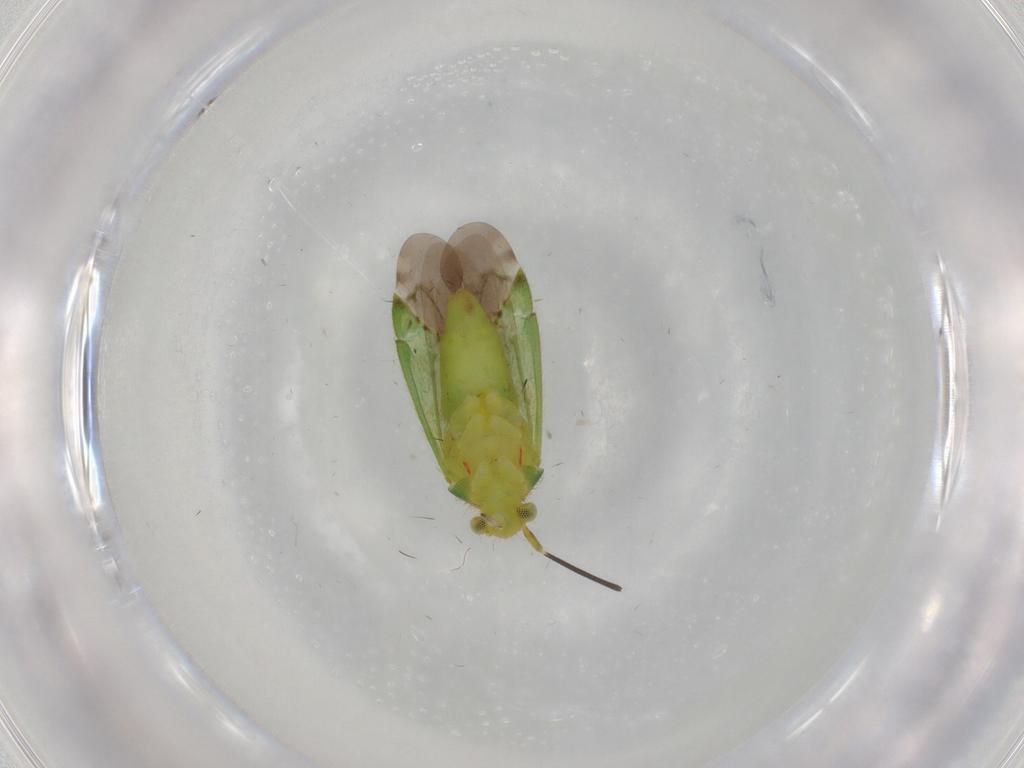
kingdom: Animalia
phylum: Arthropoda
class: Insecta
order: Hemiptera
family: Miridae
